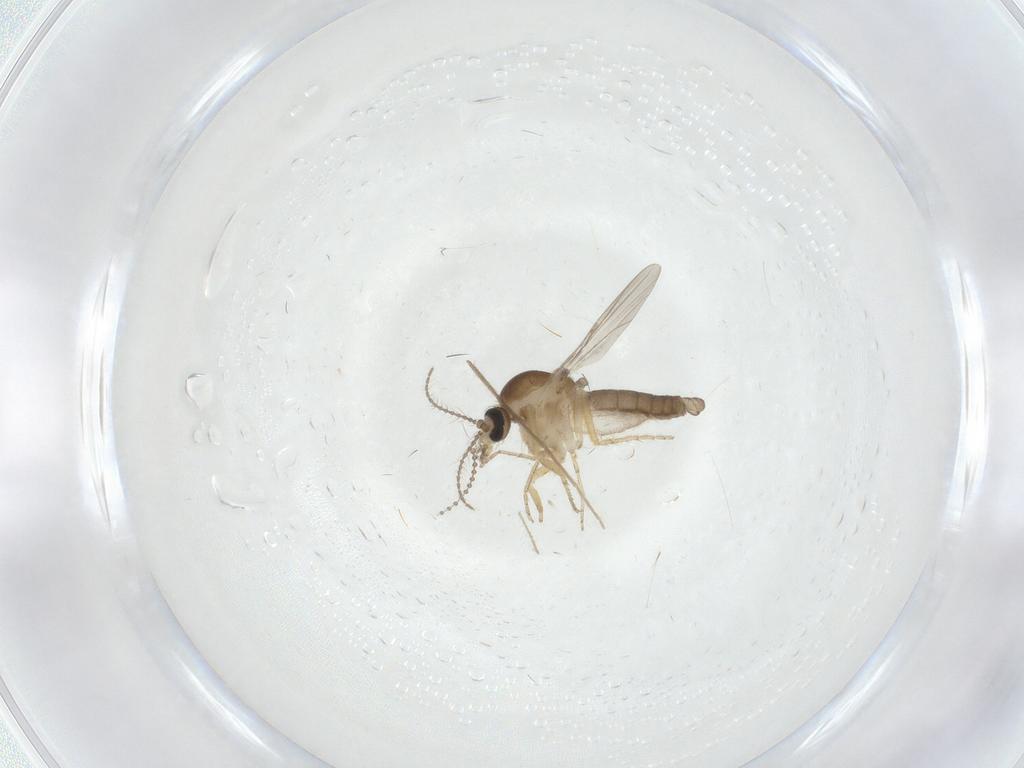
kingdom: Animalia
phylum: Arthropoda
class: Insecta
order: Diptera
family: Ceratopogonidae
